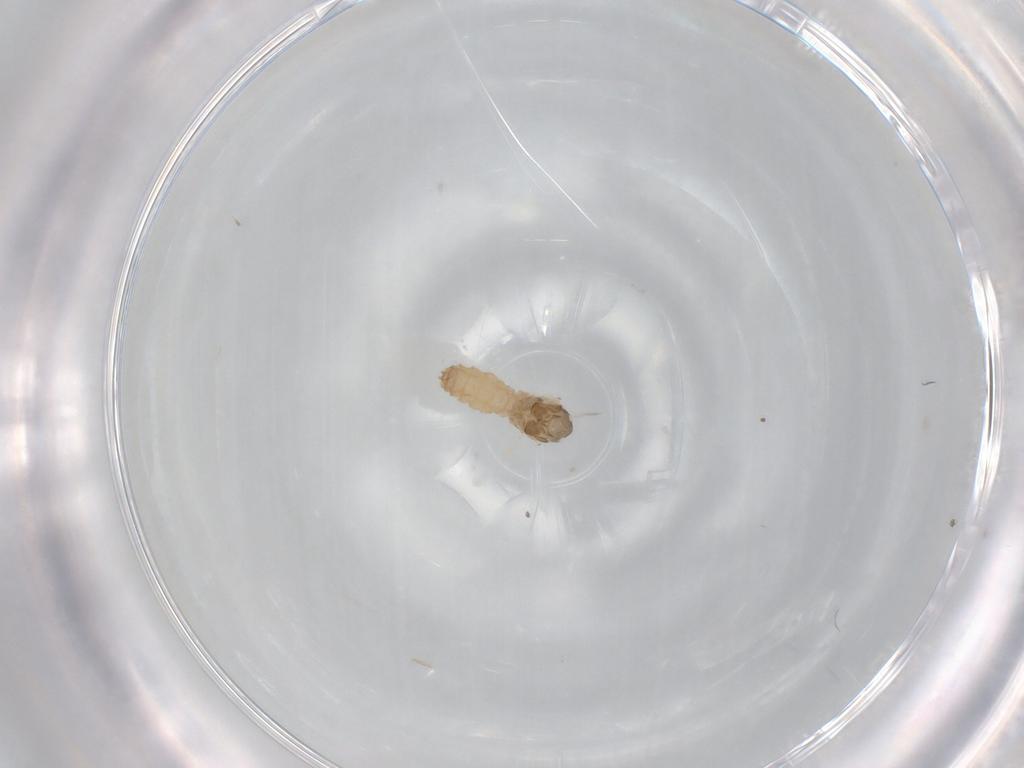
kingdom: Animalia
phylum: Arthropoda
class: Insecta
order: Diptera
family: Cecidomyiidae
